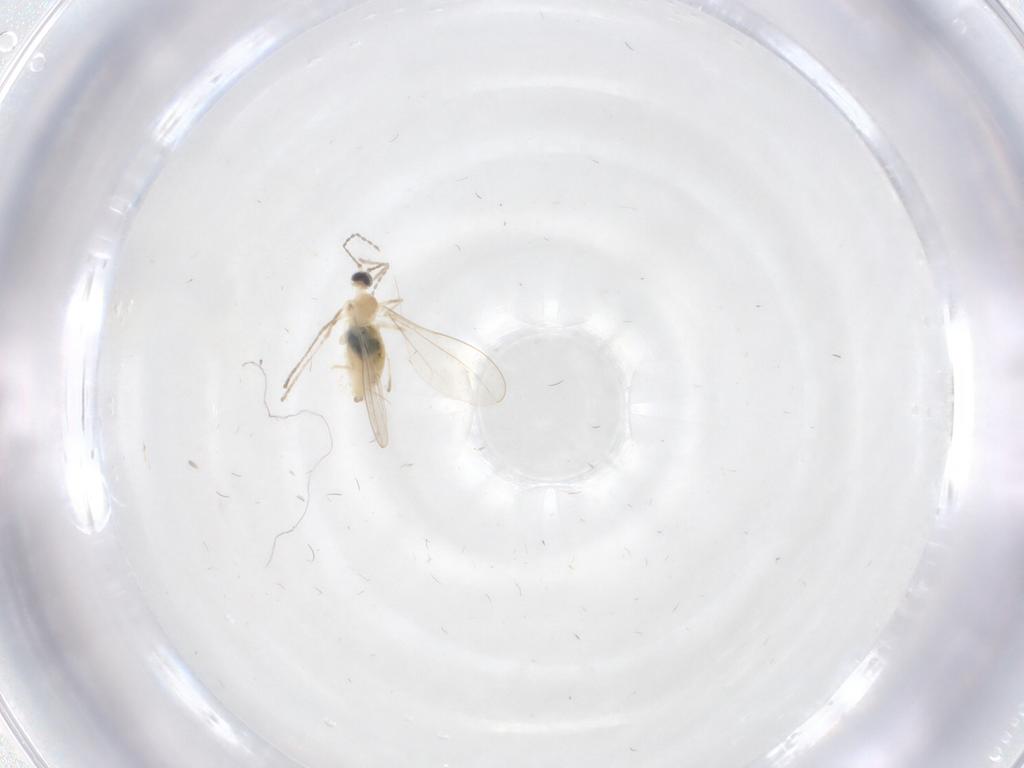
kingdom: Animalia
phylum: Arthropoda
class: Insecta
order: Diptera
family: Cecidomyiidae
